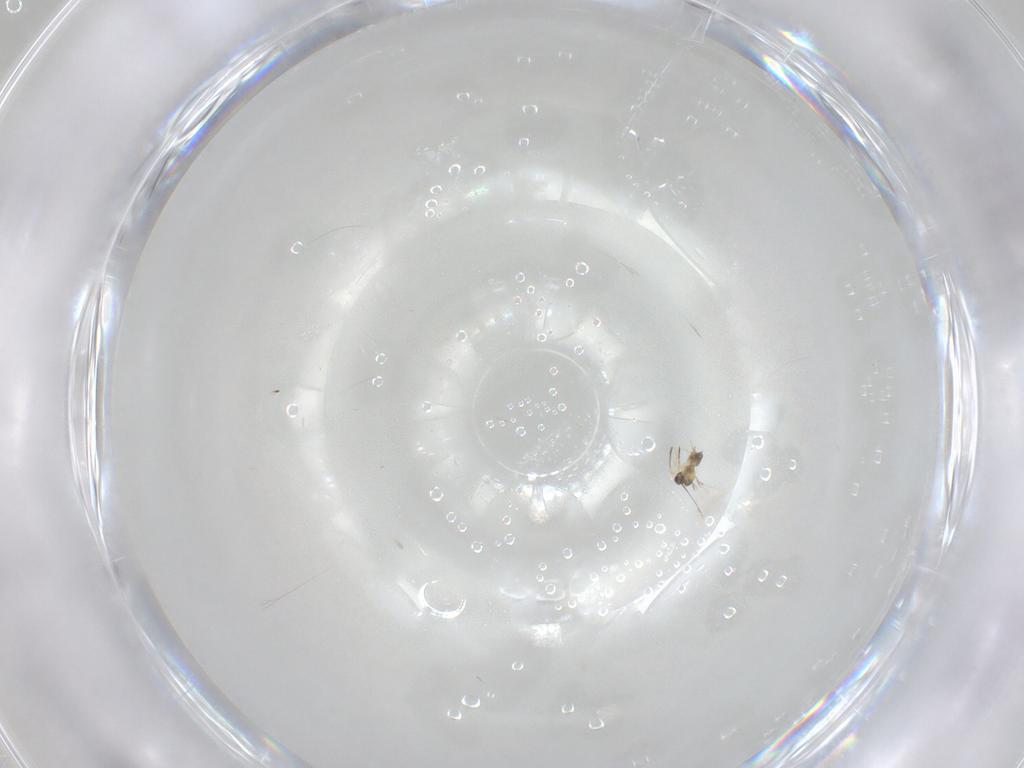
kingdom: Animalia
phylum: Arthropoda
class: Insecta
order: Hymenoptera
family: Mymaridae
